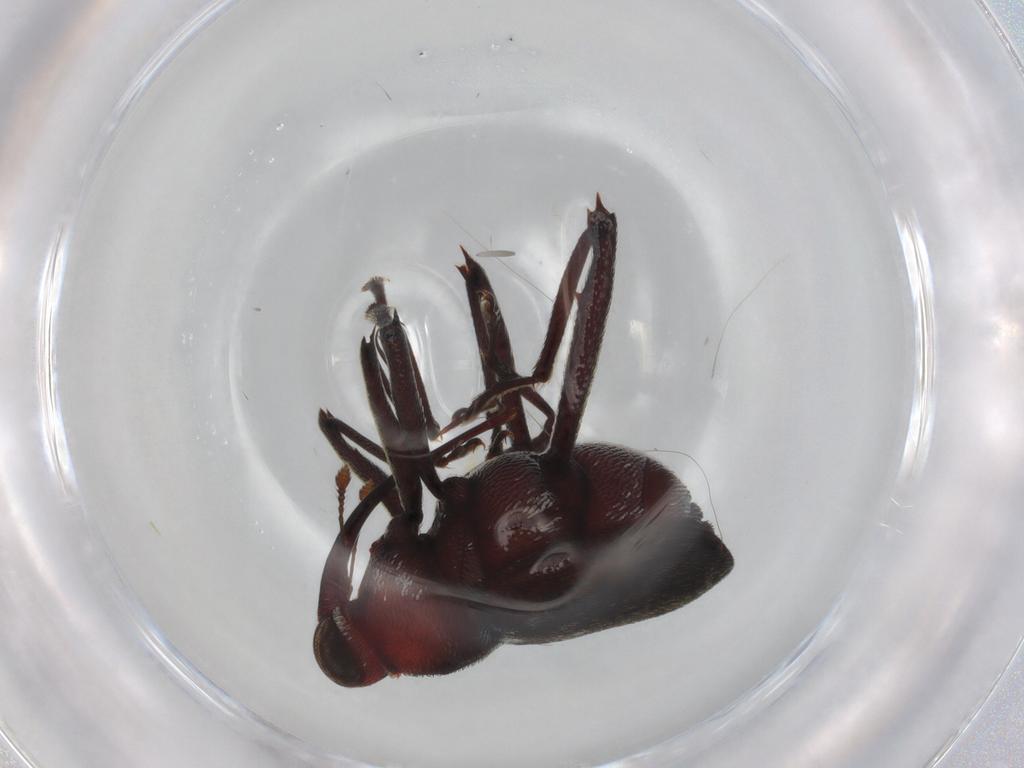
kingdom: Animalia
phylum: Arthropoda
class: Insecta
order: Coleoptera
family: Curculionidae
